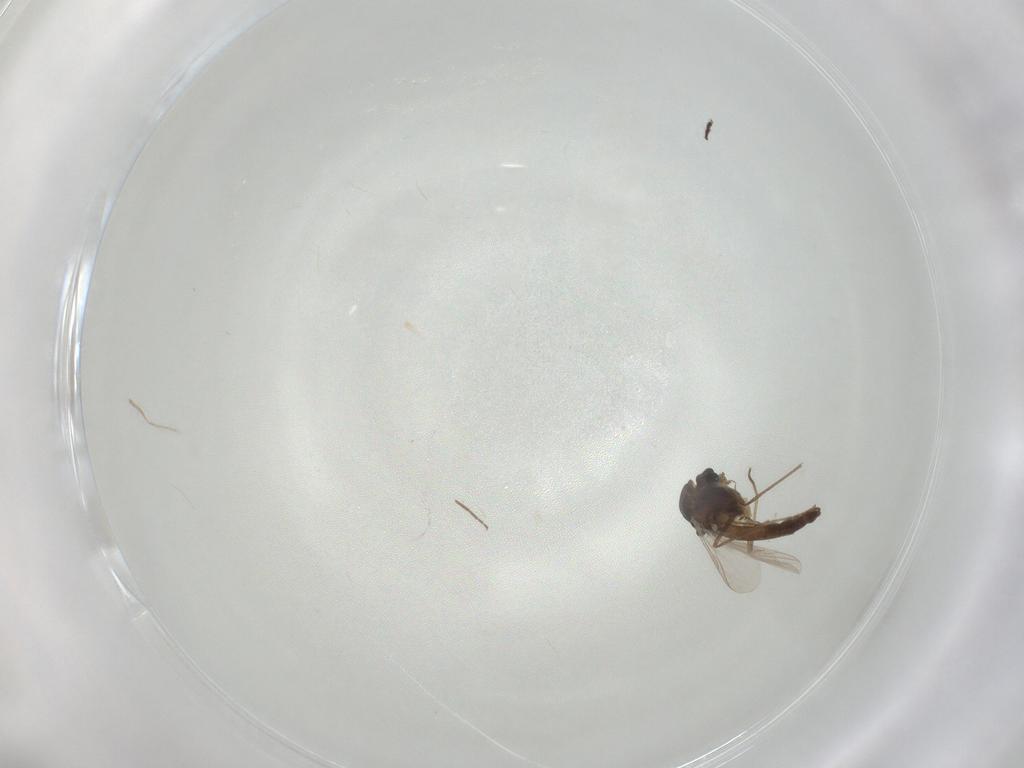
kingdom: Animalia
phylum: Arthropoda
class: Insecta
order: Diptera
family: Chironomidae
